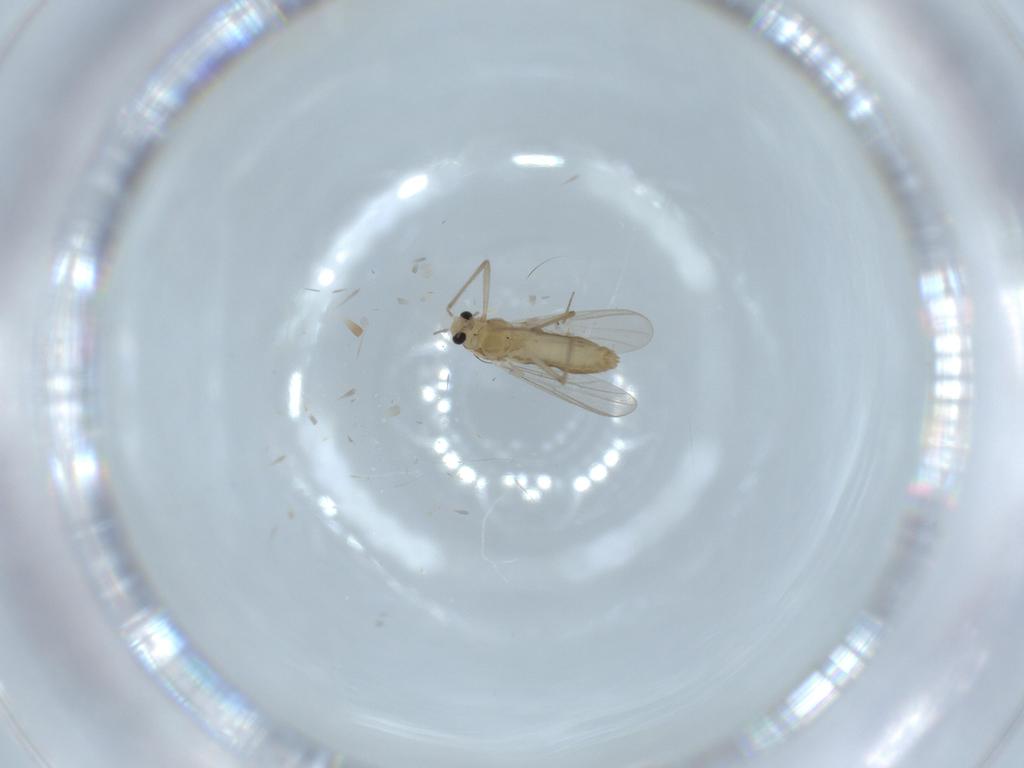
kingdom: Animalia
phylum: Arthropoda
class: Insecta
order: Diptera
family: Chironomidae
